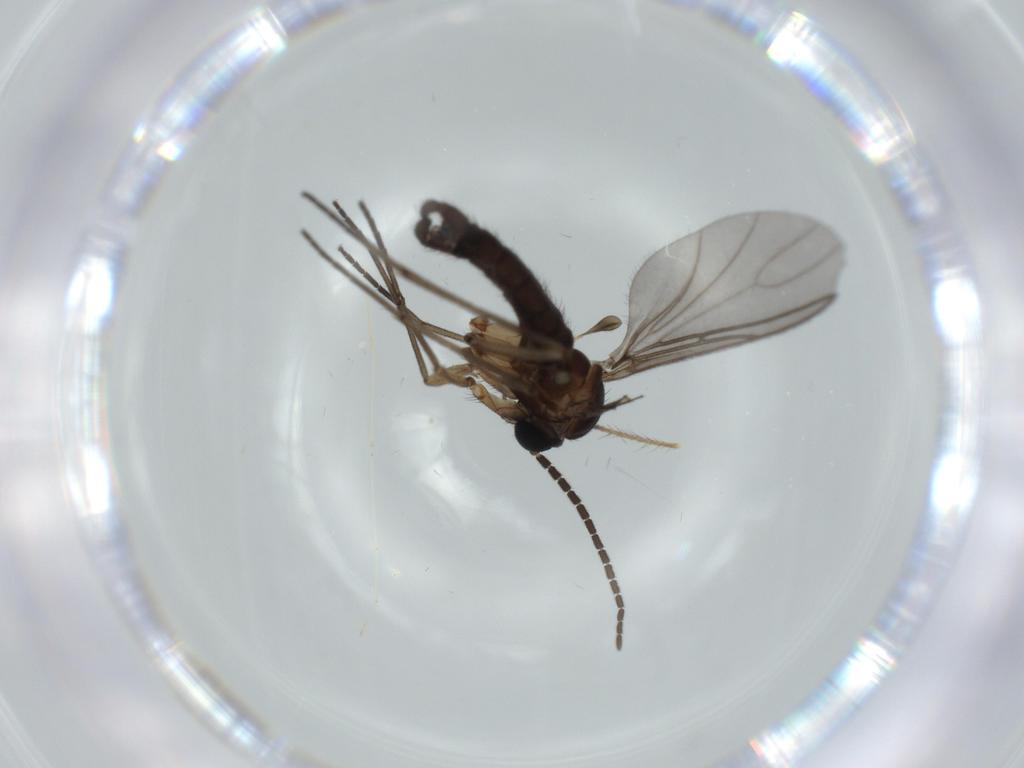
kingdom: Animalia
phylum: Arthropoda
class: Insecta
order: Diptera
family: Sciaridae
